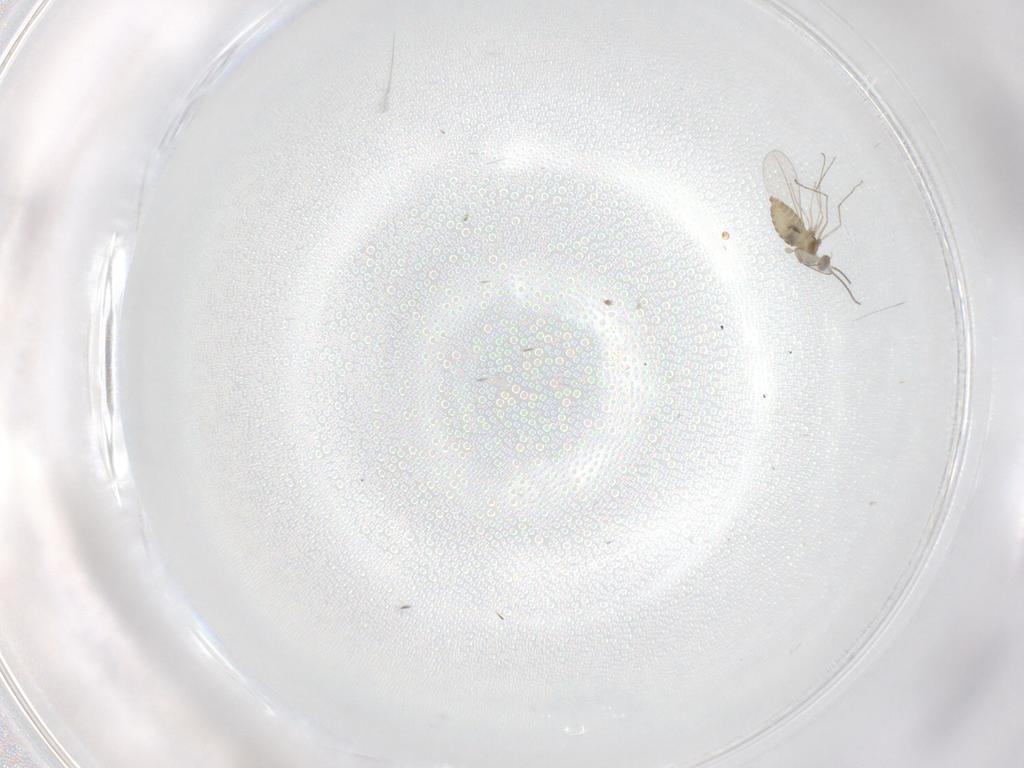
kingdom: Animalia
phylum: Arthropoda
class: Insecta
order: Diptera
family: Cecidomyiidae
